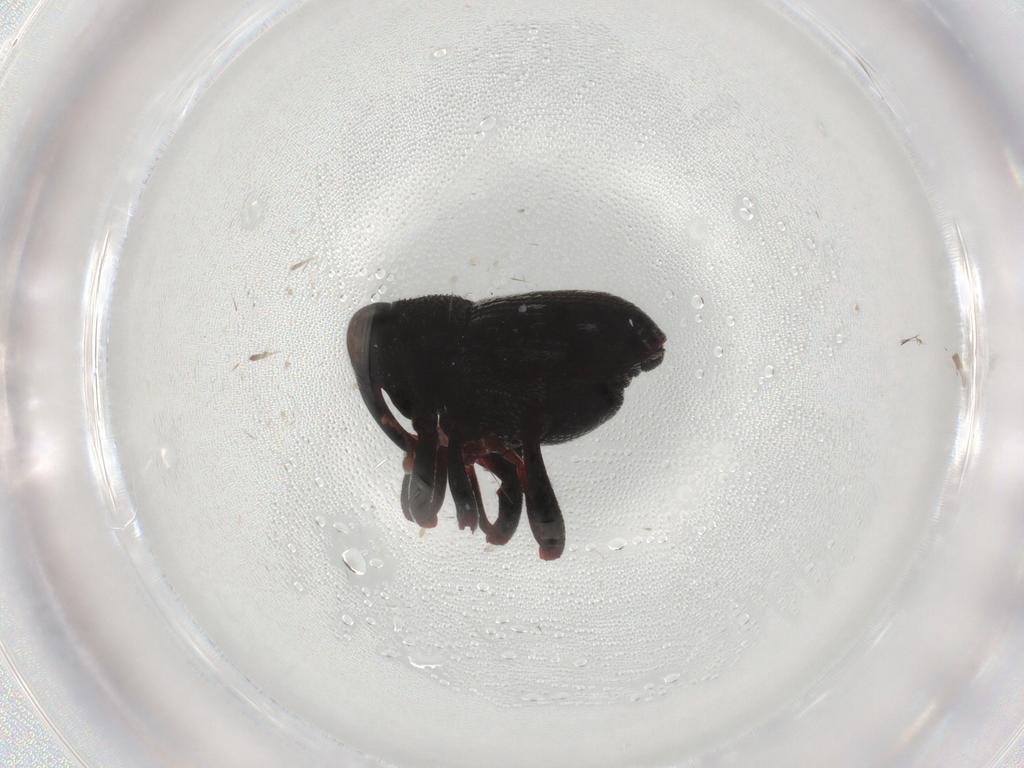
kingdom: Animalia
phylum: Arthropoda
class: Insecta
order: Coleoptera
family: Curculionidae
